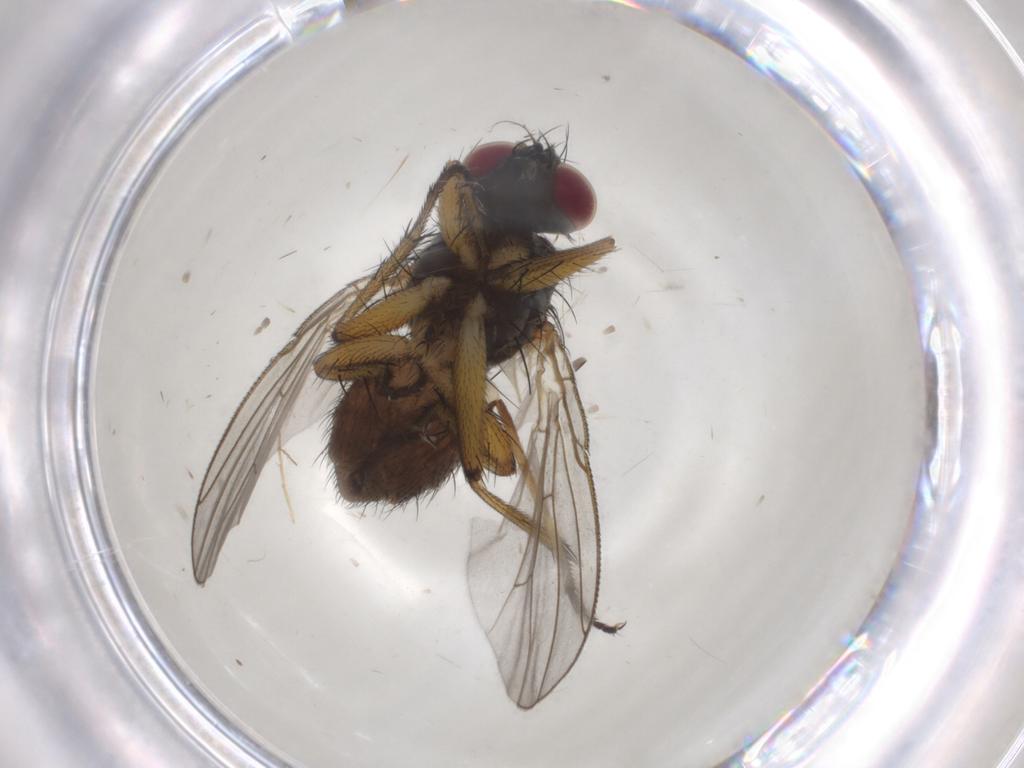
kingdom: Animalia
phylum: Arthropoda
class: Insecta
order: Diptera
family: Muscidae
